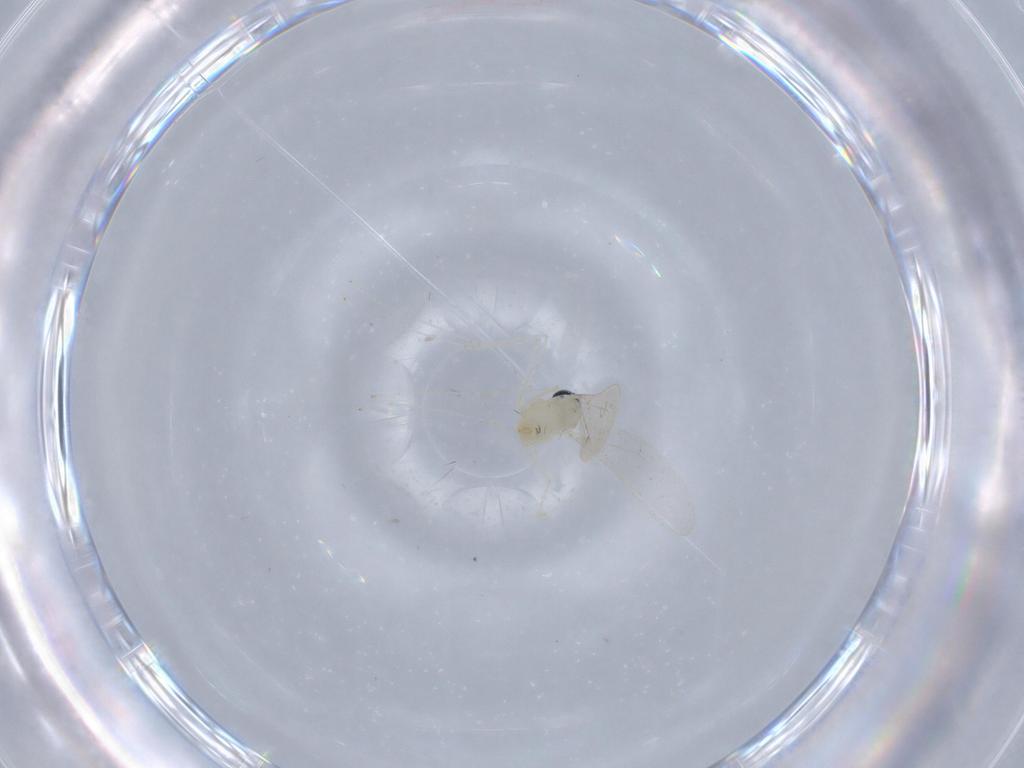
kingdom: Animalia
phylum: Arthropoda
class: Insecta
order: Diptera
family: Cecidomyiidae
